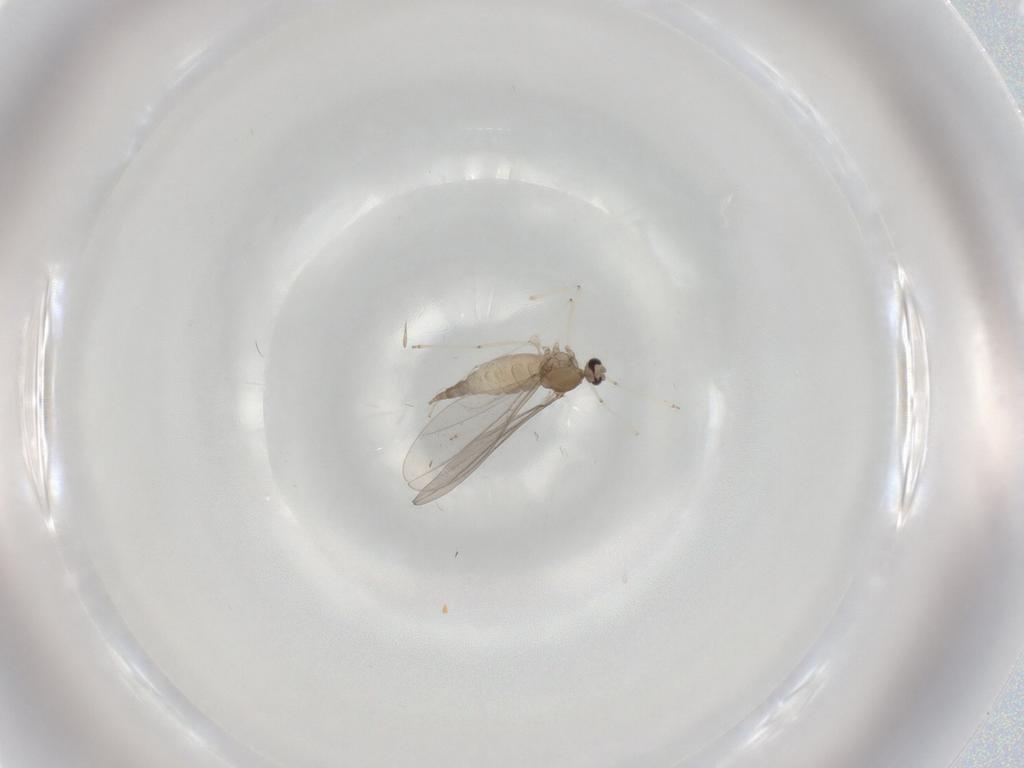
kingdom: Animalia
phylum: Arthropoda
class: Insecta
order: Diptera
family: Cecidomyiidae
